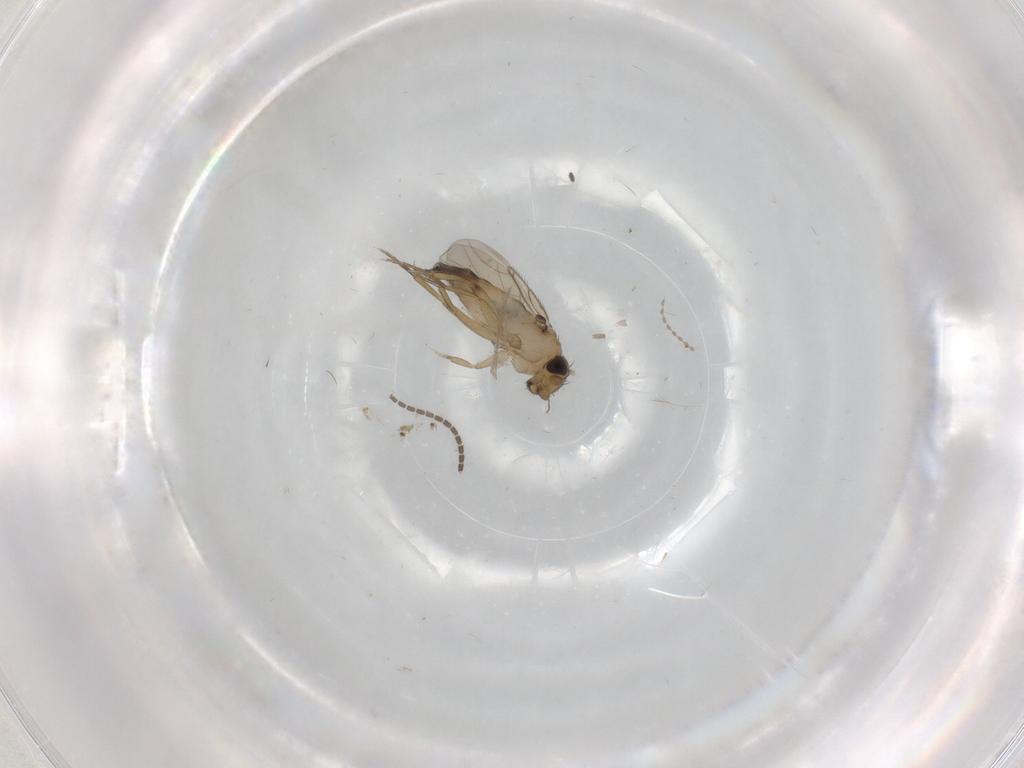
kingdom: Animalia
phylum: Arthropoda
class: Insecta
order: Diptera
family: Phoridae
